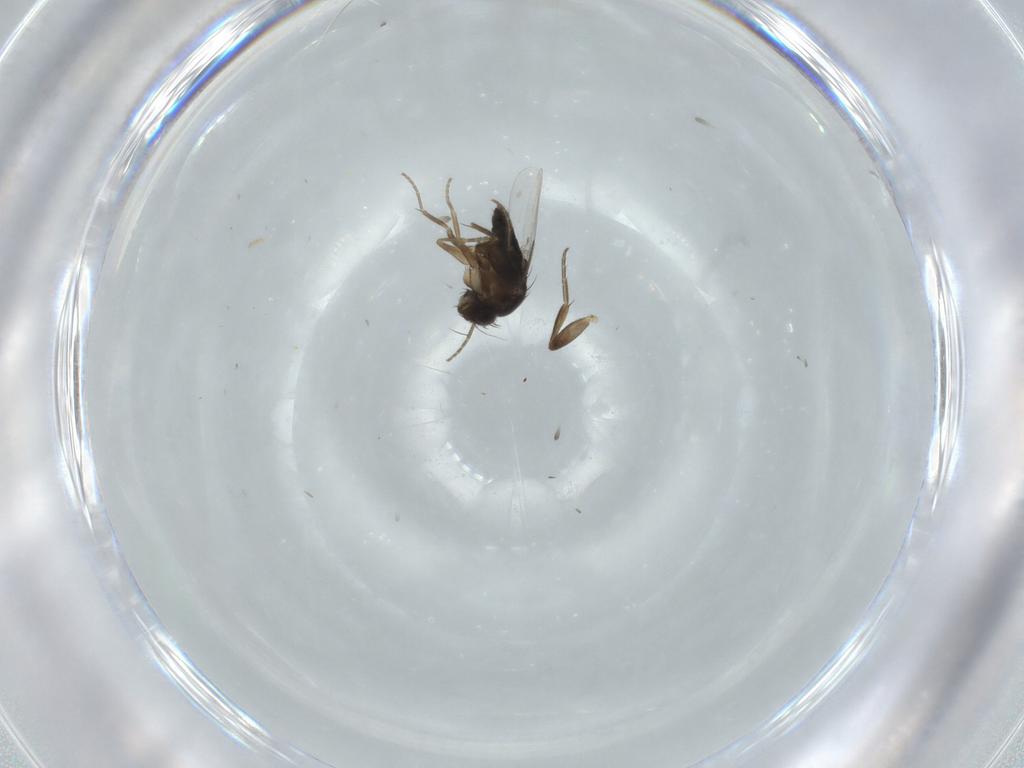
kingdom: Animalia
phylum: Arthropoda
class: Insecta
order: Diptera
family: Phoridae
